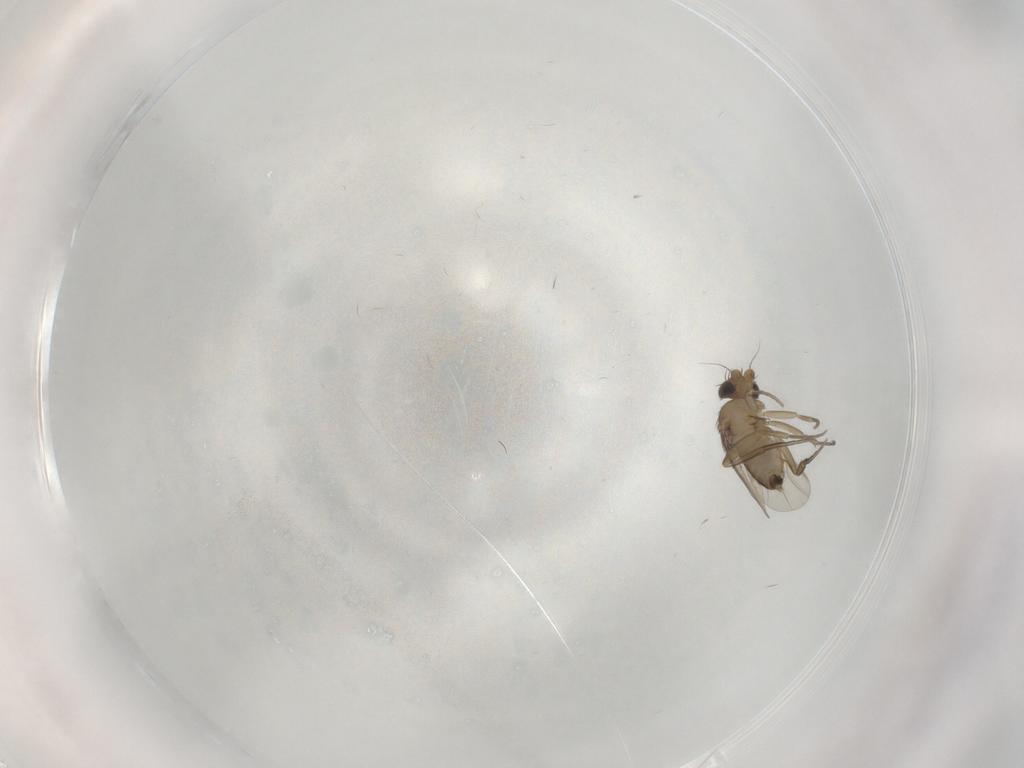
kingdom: Animalia
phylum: Arthropoda
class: Insecta
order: Diptera
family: Phoridae
